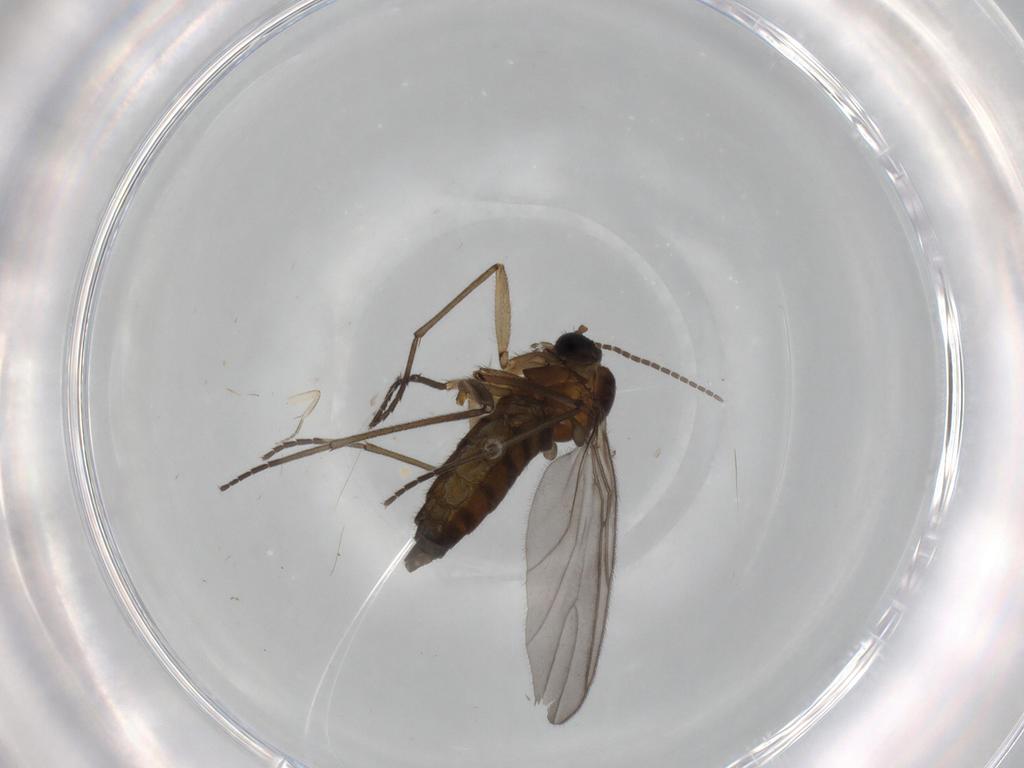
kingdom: Animalia
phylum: Arthropoda
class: Insecta
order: Diptera
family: Sciaridae
